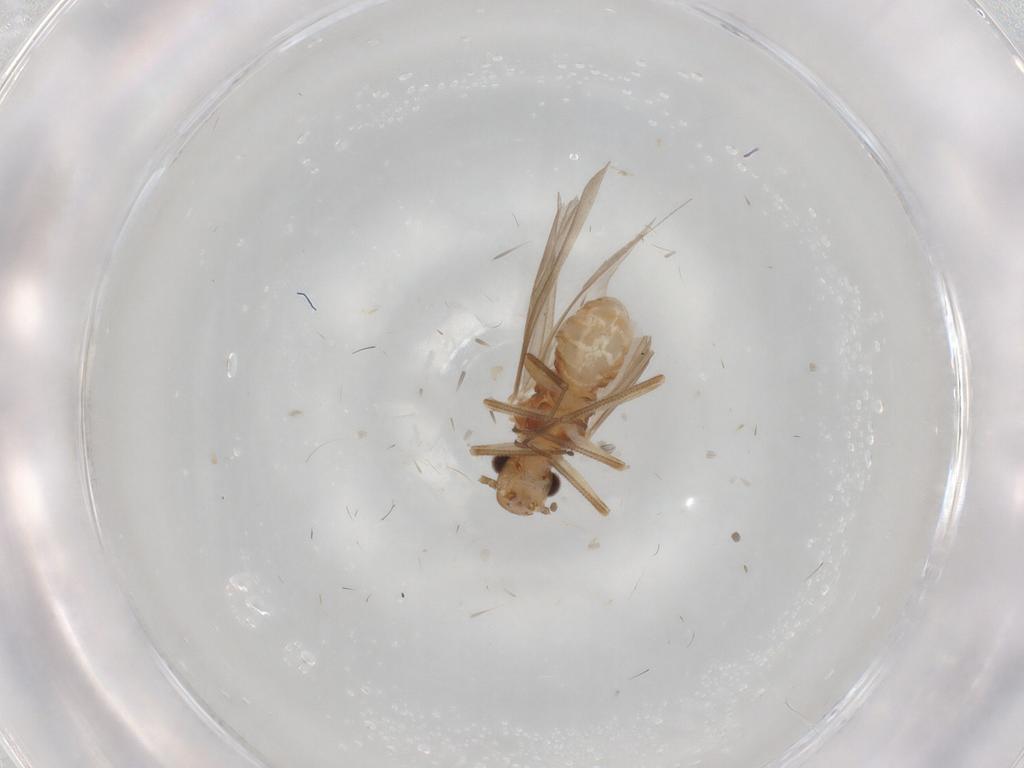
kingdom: Animalia
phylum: Arthropoda
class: Insecta
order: Psocodea
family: Caeciliusidae
